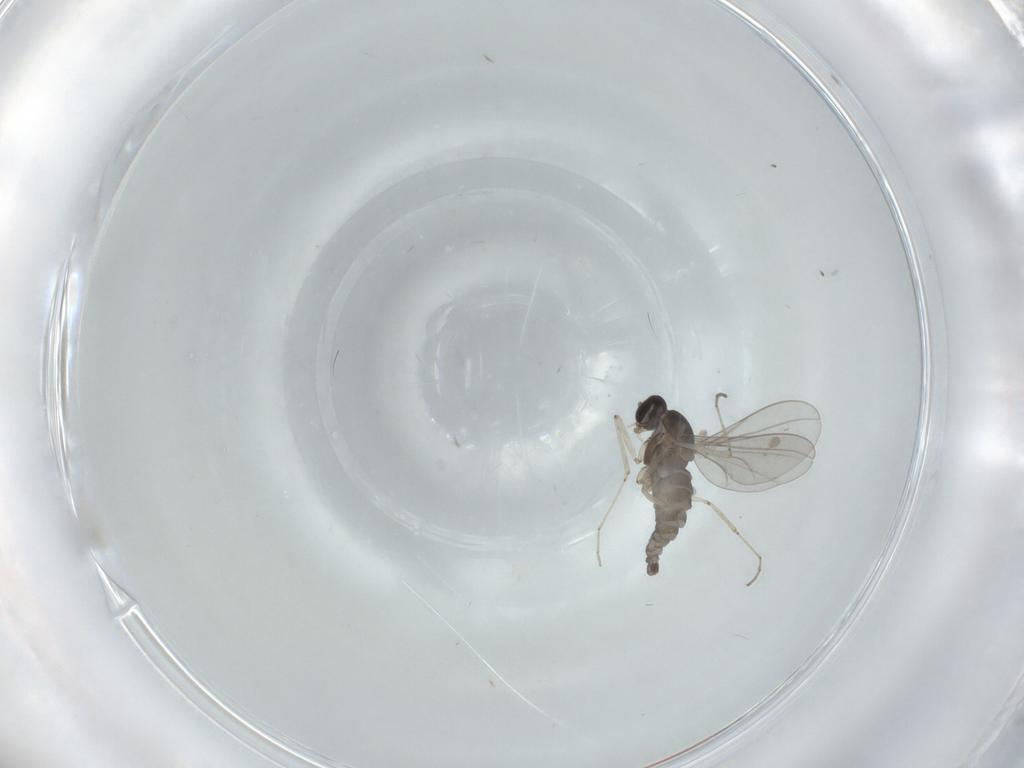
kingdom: Animalia
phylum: Arthropoda
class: Insecta
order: Diptera
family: Cecidomyiidae
